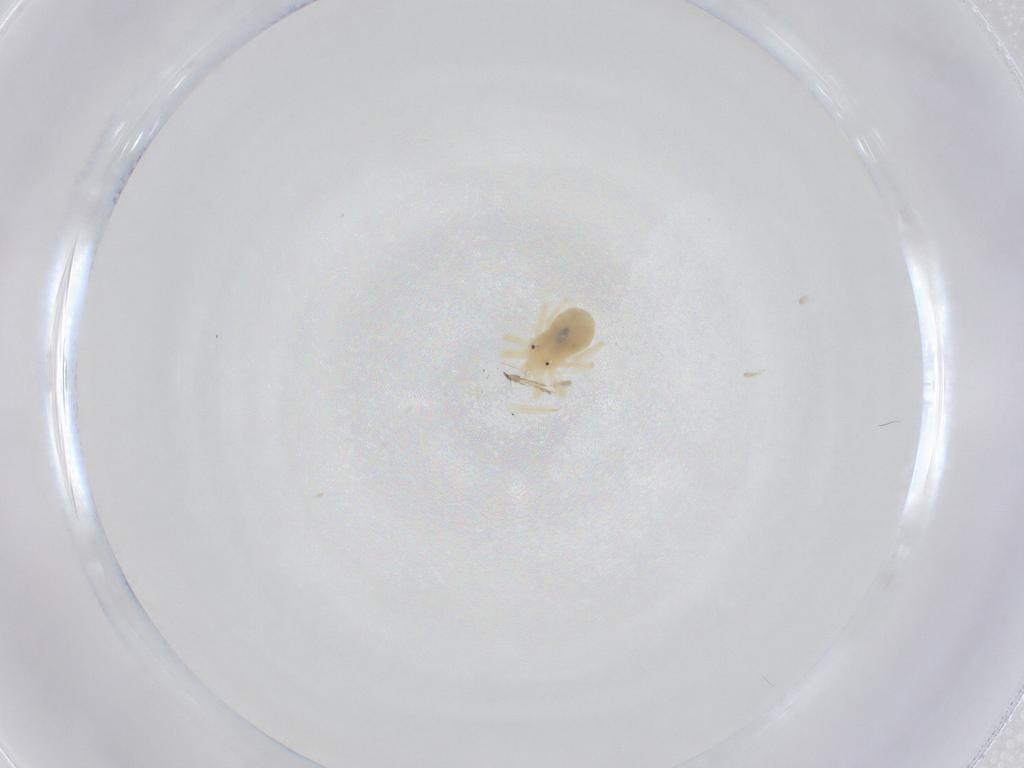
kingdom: Animalia
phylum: Arthropoda
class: Arachnida
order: Trombidiformes
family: Anystidae
